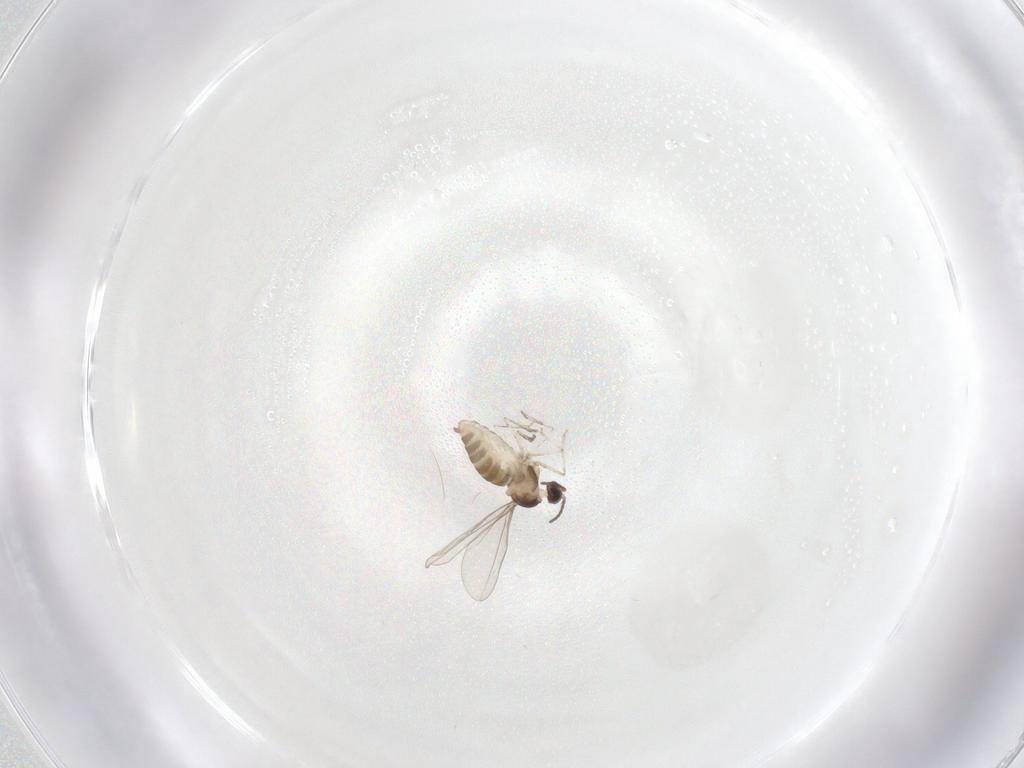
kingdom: Animalia
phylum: Arthropoda
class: Insecta
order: Diptera
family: Cecidomyiidae
